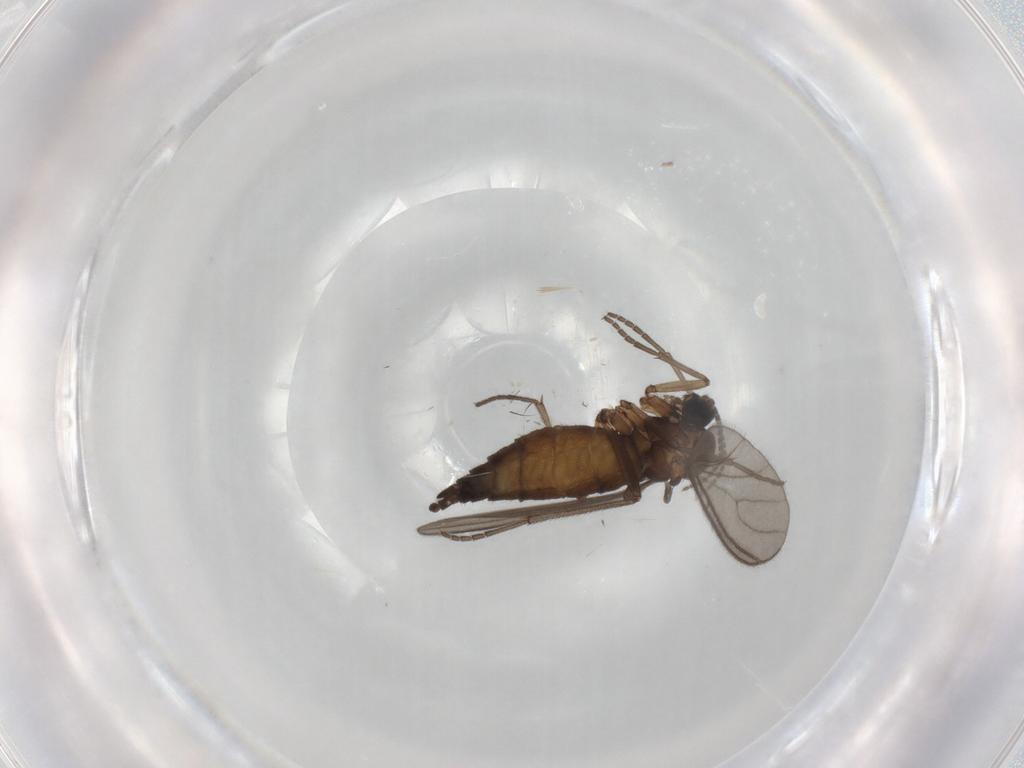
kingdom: Animalia
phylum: Arthropoda
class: Insecta
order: Diptera
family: Sciaridae
